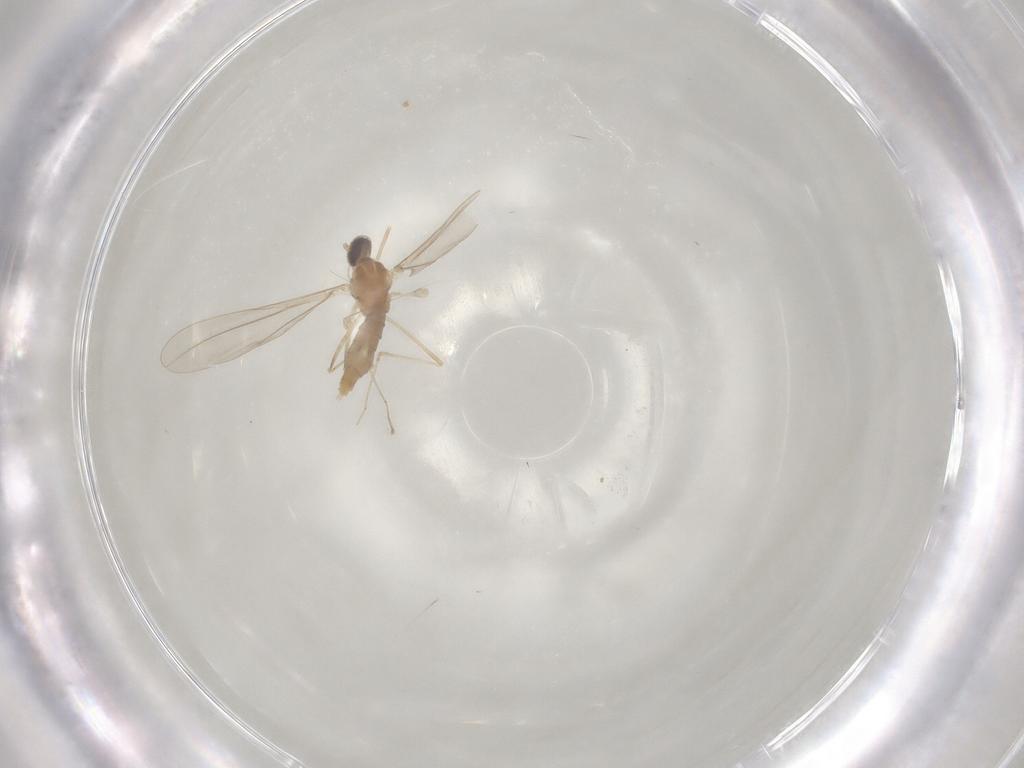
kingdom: Animalia
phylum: Arthropoda
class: Insecta
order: Diptera
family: Cecidomyiidae
